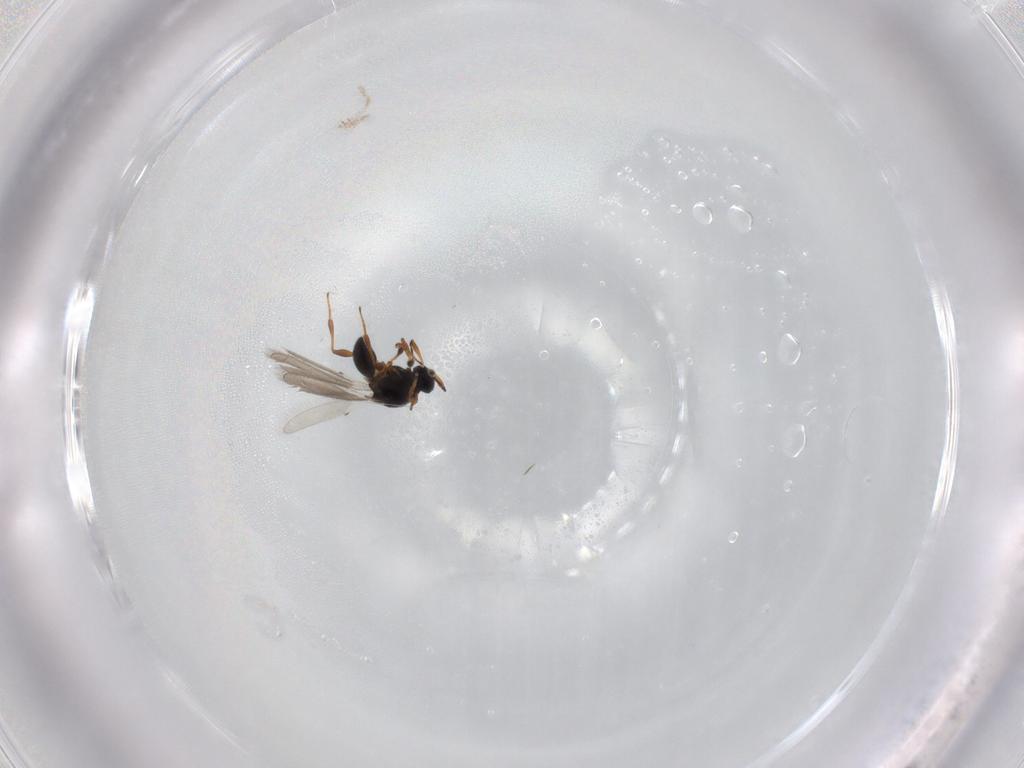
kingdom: Animalia
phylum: Arthropoda
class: Insecta
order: Hymenoptera
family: Platygastridae
